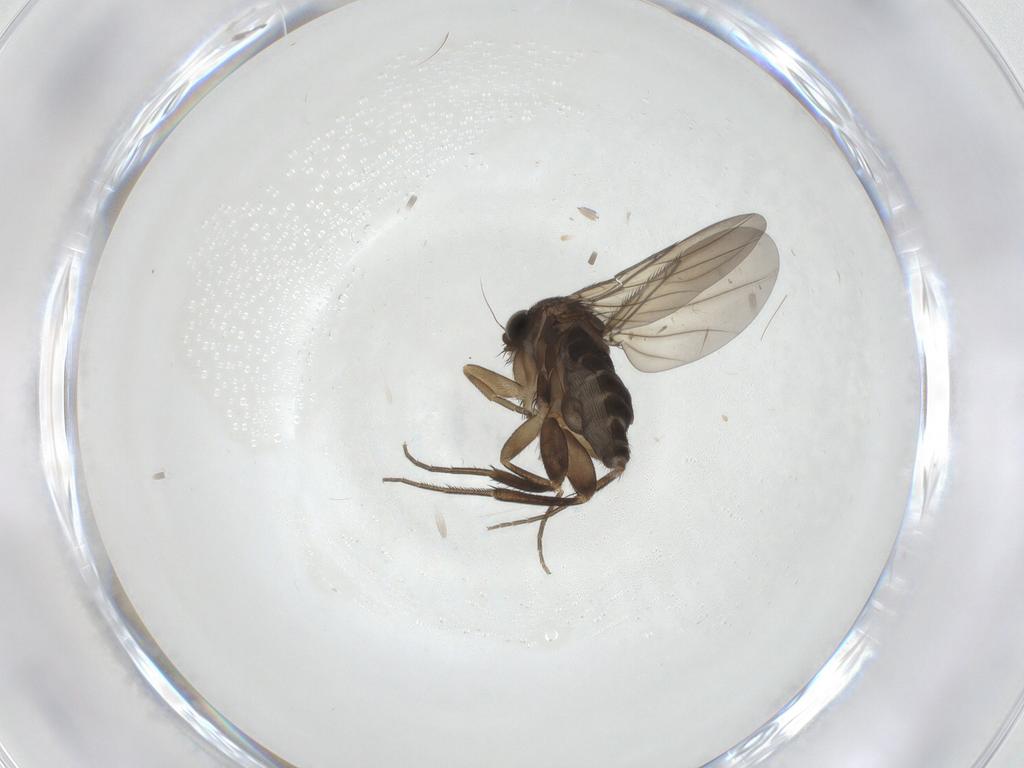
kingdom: Animalia
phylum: Arthropoda
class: Insecta
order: Diptera
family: Phoridae
